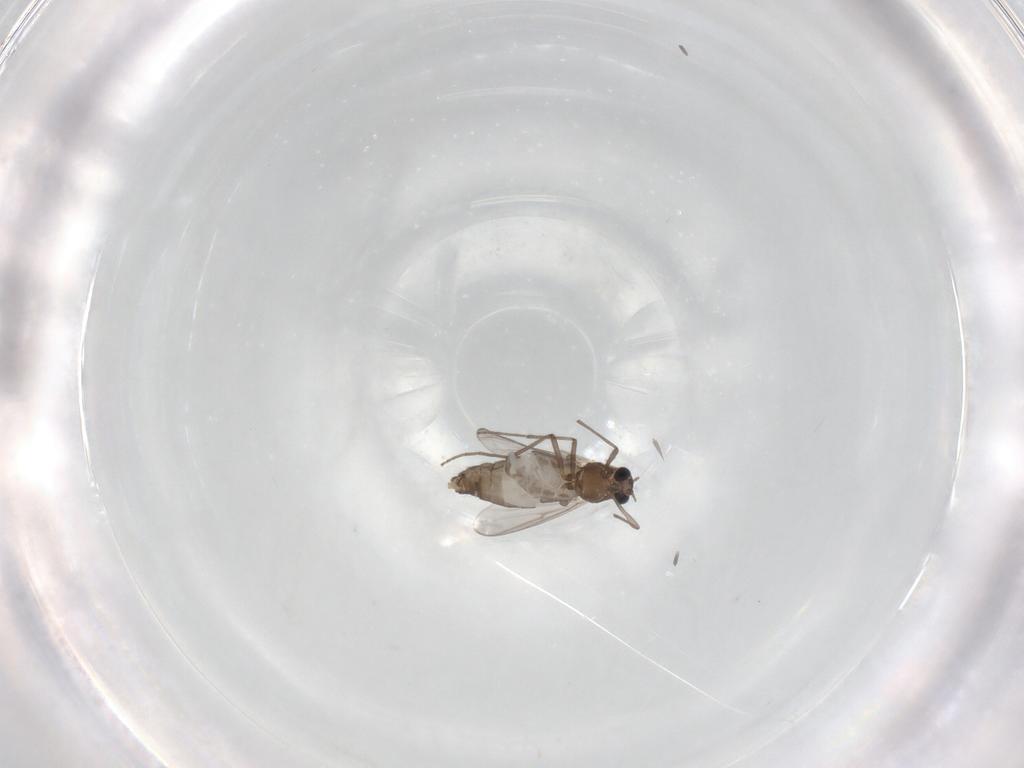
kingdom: Animalia
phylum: Arthropoda
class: Insecta
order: Diptera
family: Chironomidae
